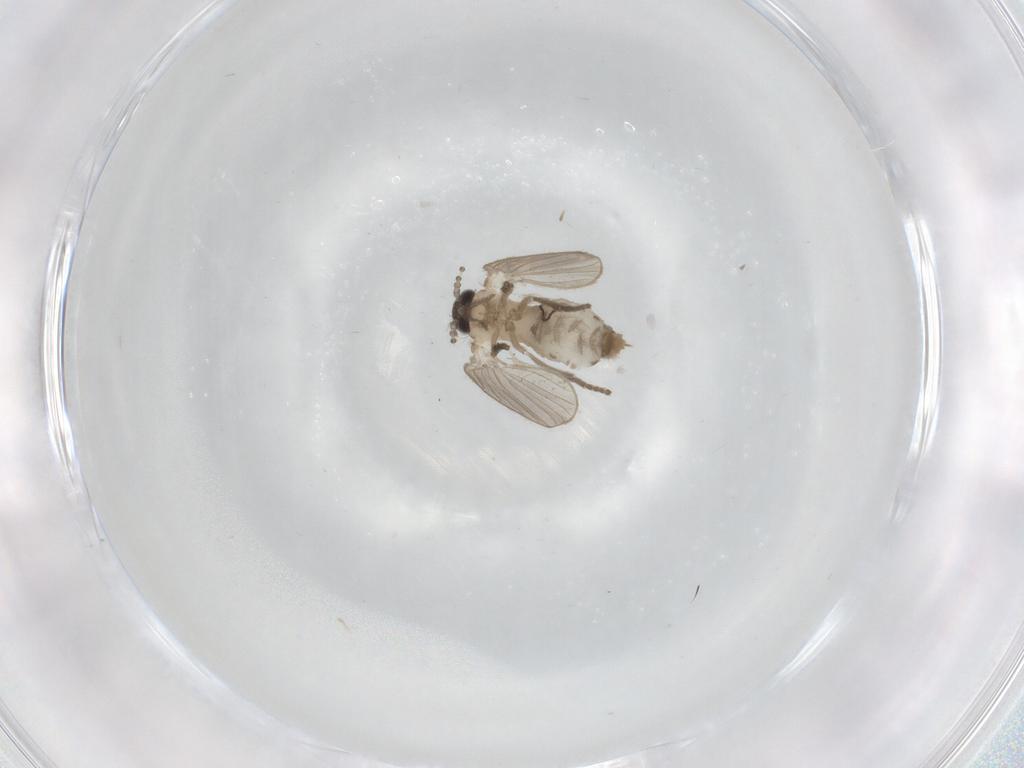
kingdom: Animalia
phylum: Arthropoda
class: Insecta
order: Diptera
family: Psychodidae
